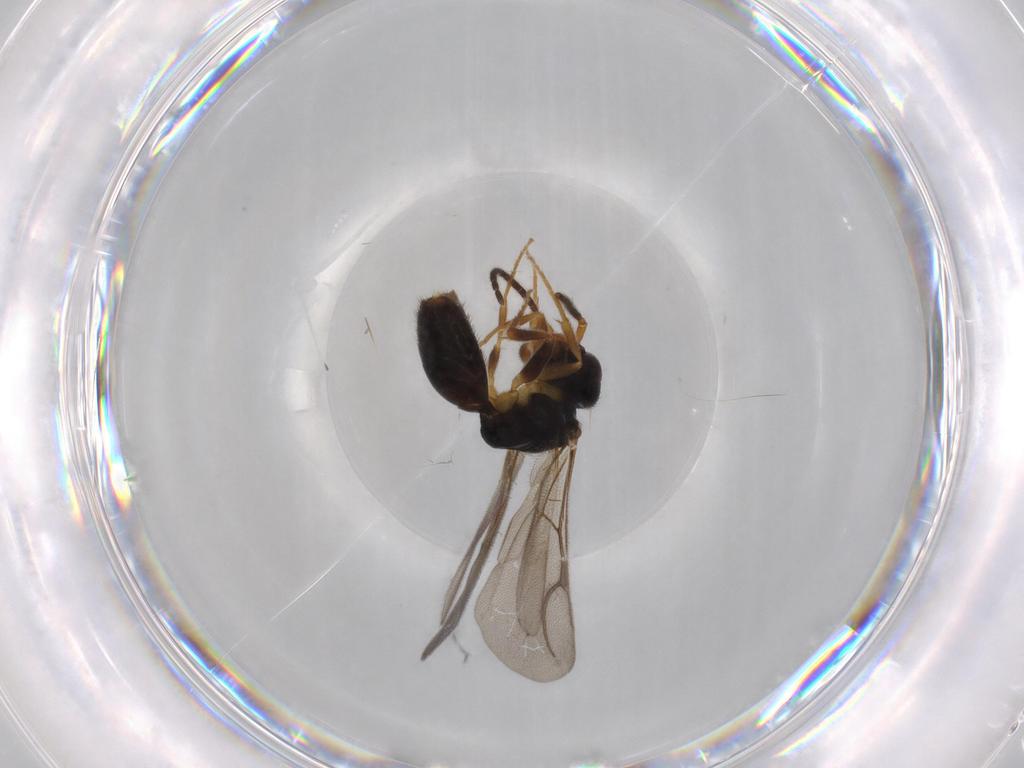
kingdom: Animalia
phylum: Arthropoda
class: Insecta
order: Hymenoptera
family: Bethylidae
